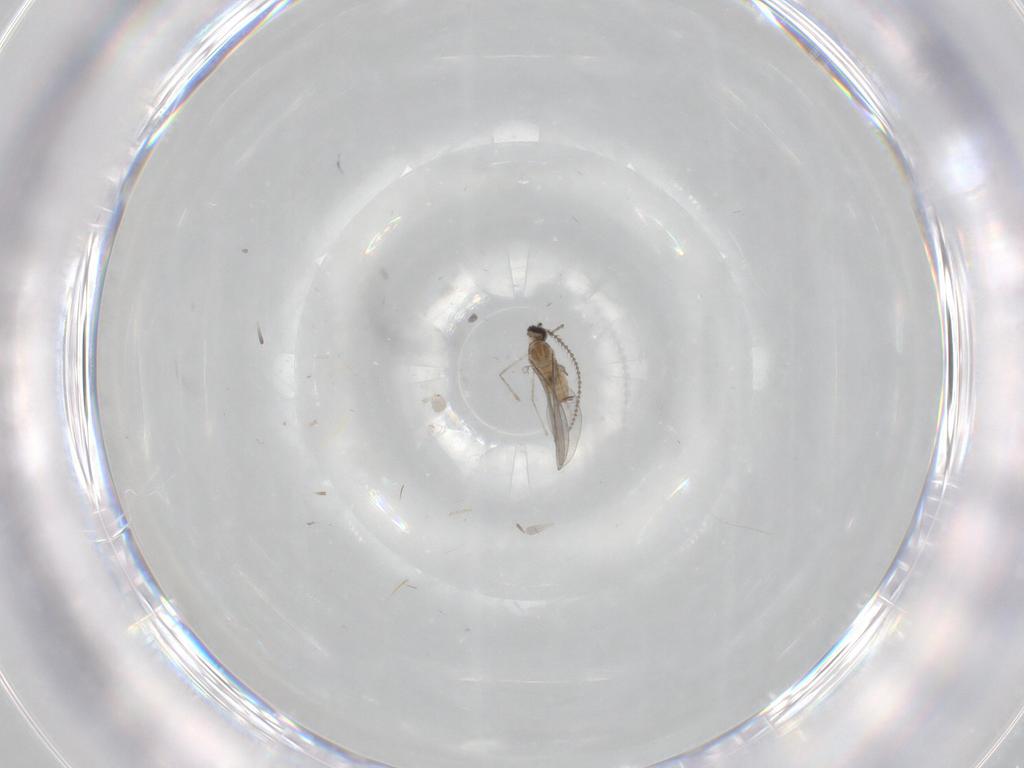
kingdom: Animalia
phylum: Arthropoda
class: Insecta
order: Diptera
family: Cecidomyiidae
